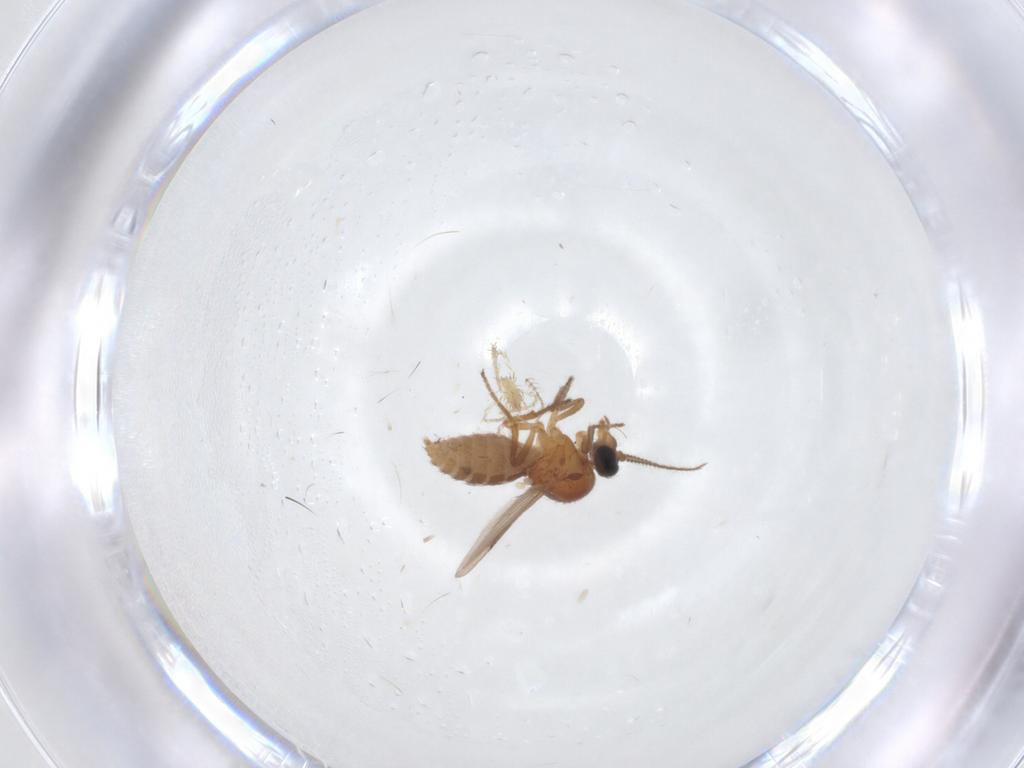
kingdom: Animalia
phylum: Arthropoda
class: Insecta
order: Diptera
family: Ceratopogonidae
